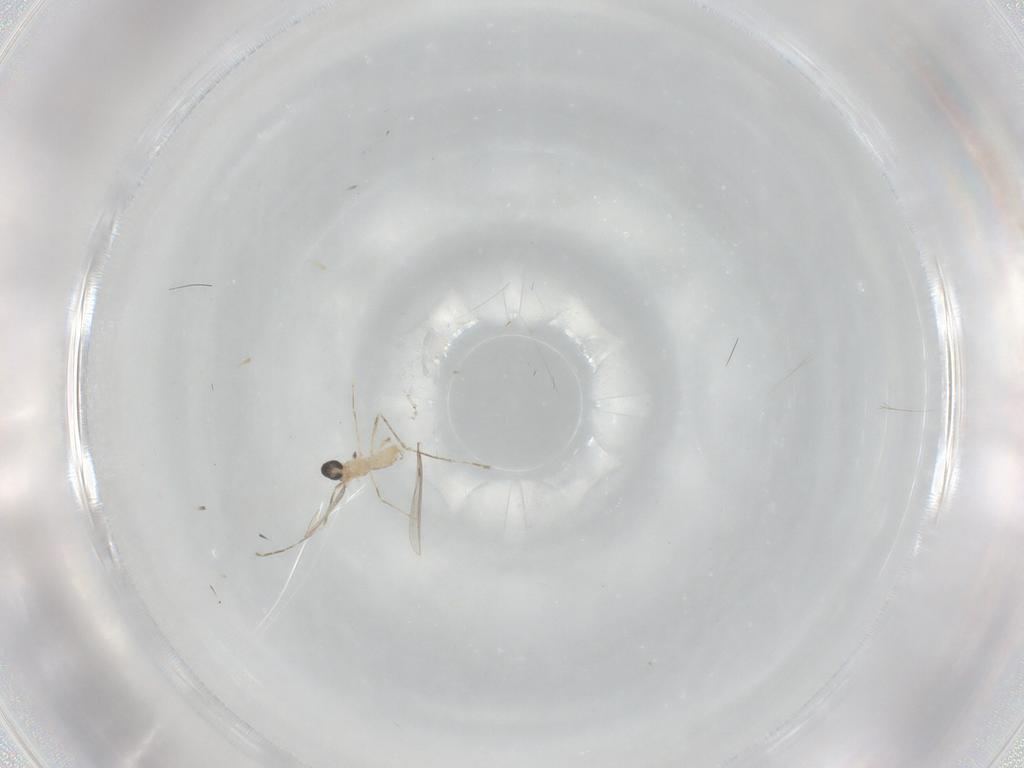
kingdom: Animalia
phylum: Arthropoda
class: Insecta
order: Diptera
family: Cecidomyiidae
